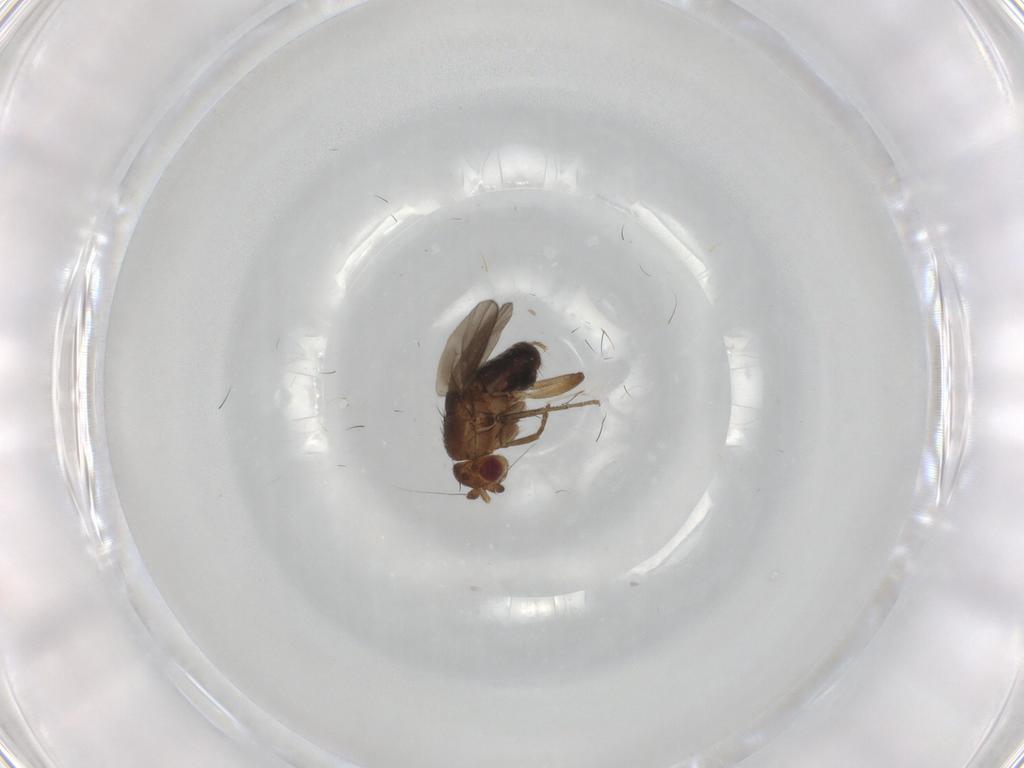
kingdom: Animalia
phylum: Arthropoda
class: Insecta
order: Diptera
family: Sphaeroceridae
